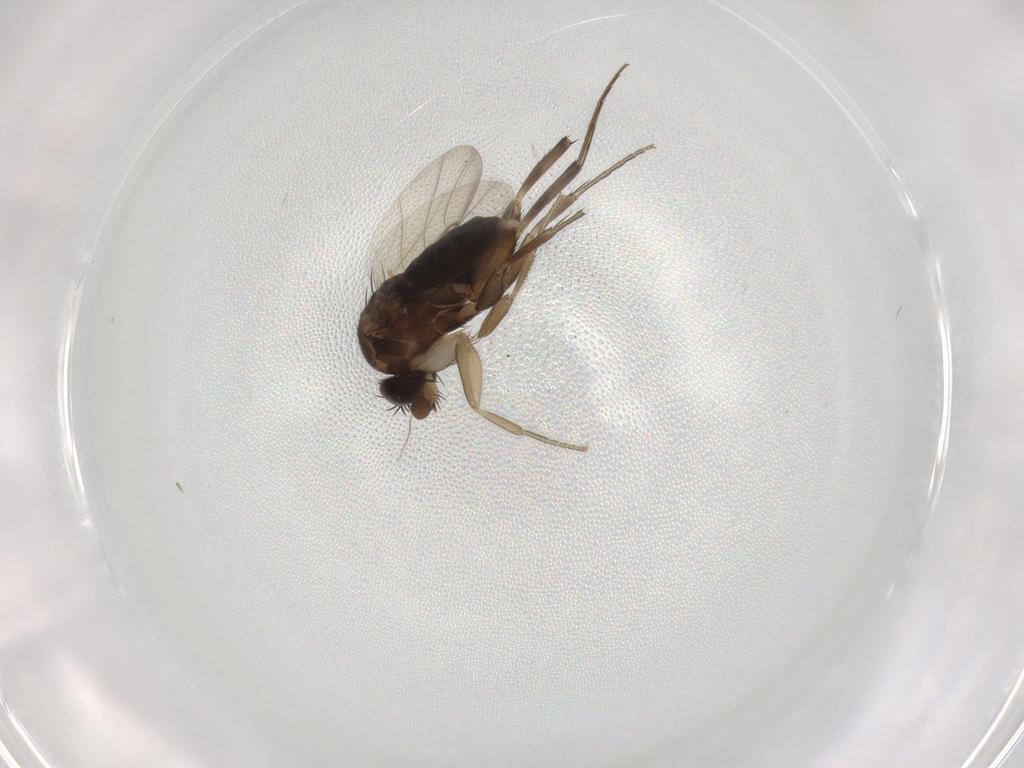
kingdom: Animalia
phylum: Arthropoda
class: Insecta
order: Diptera
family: Phoridae
